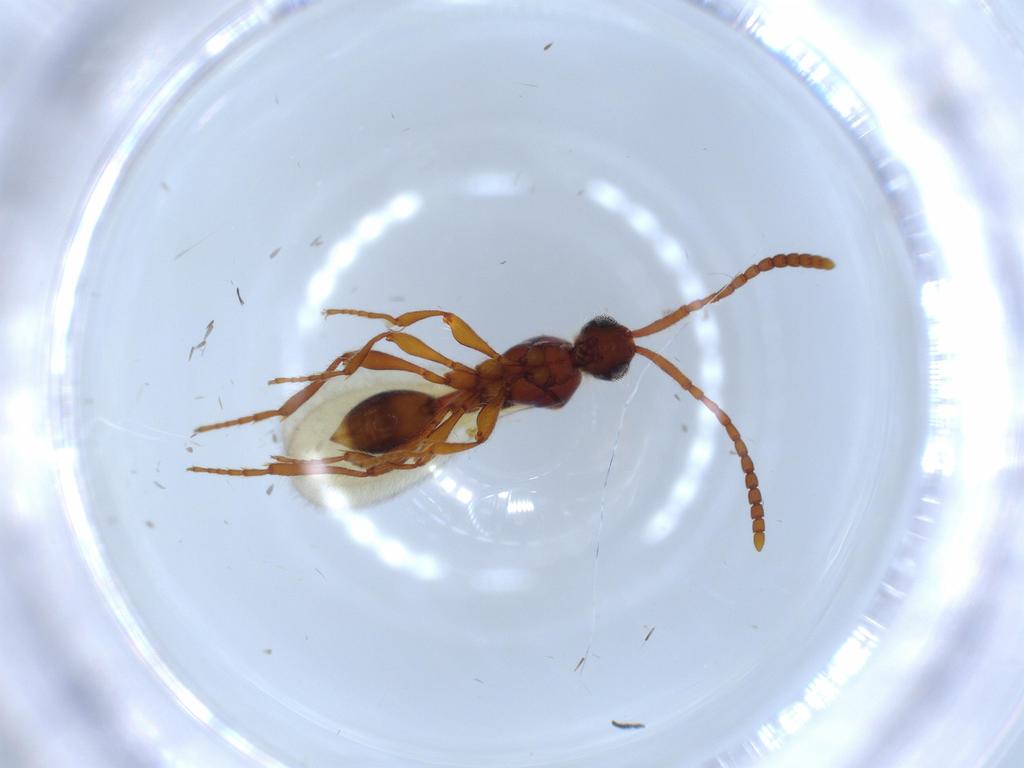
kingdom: Animalia
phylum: Arthropoda
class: Insecta
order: Hymenoptera
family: Diapriidae
